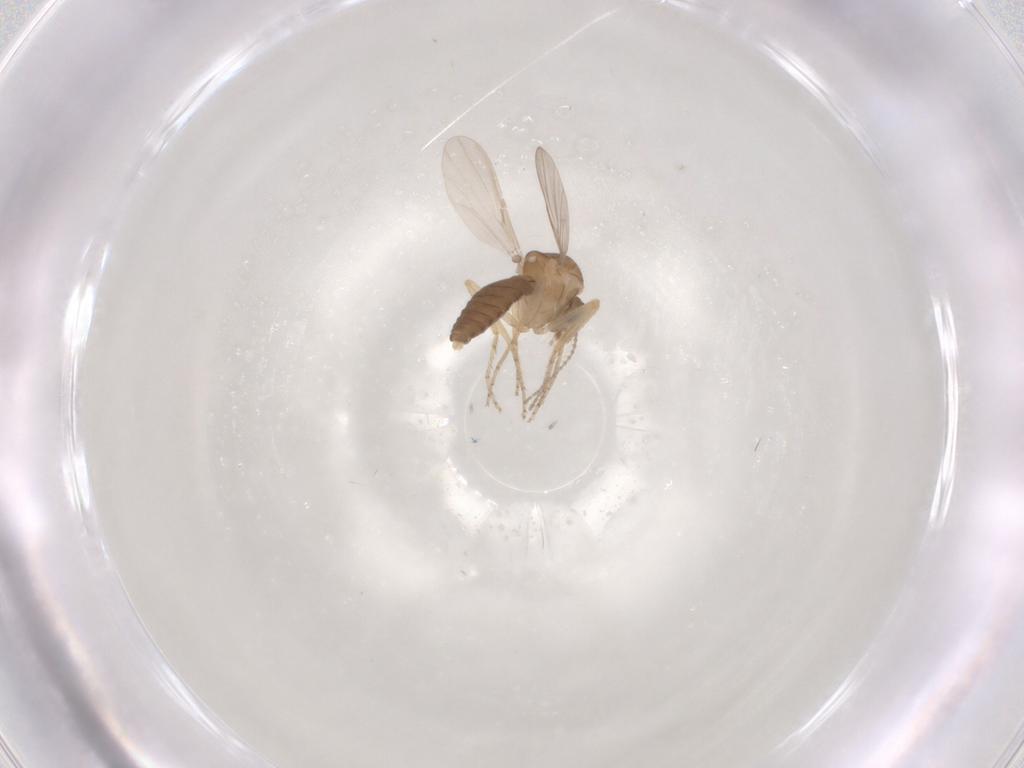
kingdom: Animalia
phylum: Arthropoda
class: Insecta
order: Diptera
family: Ceratopogonidae
